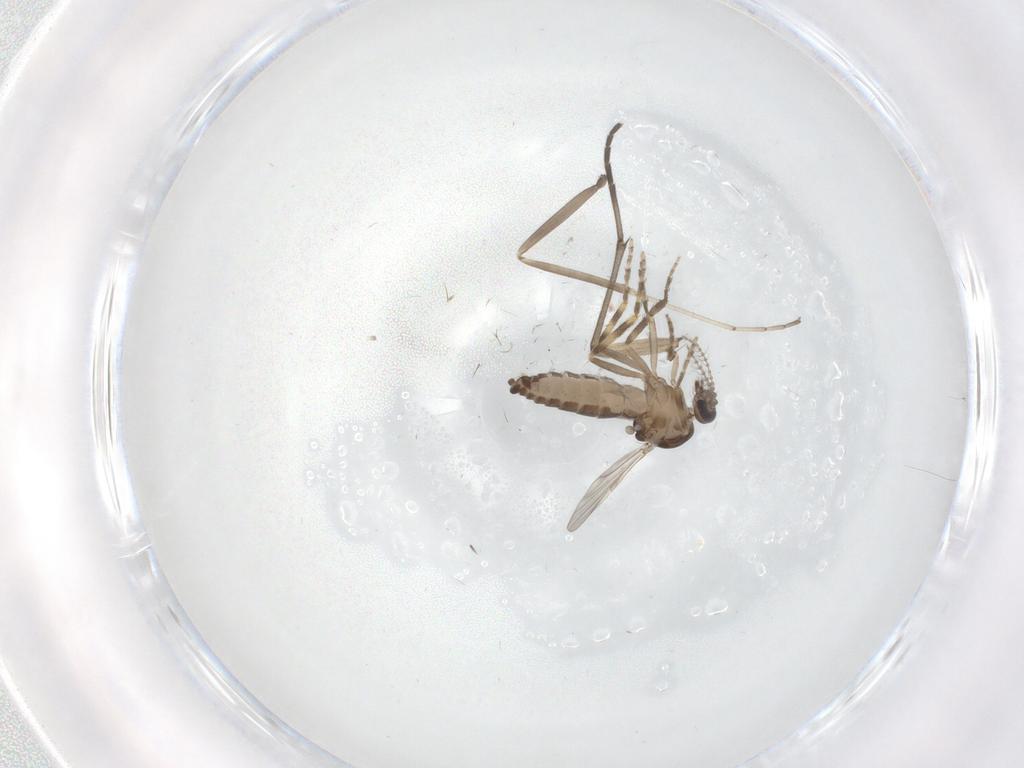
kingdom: Animalia
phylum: Arthropoda
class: Insecta
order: Diptera
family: Ceratopogonidae
